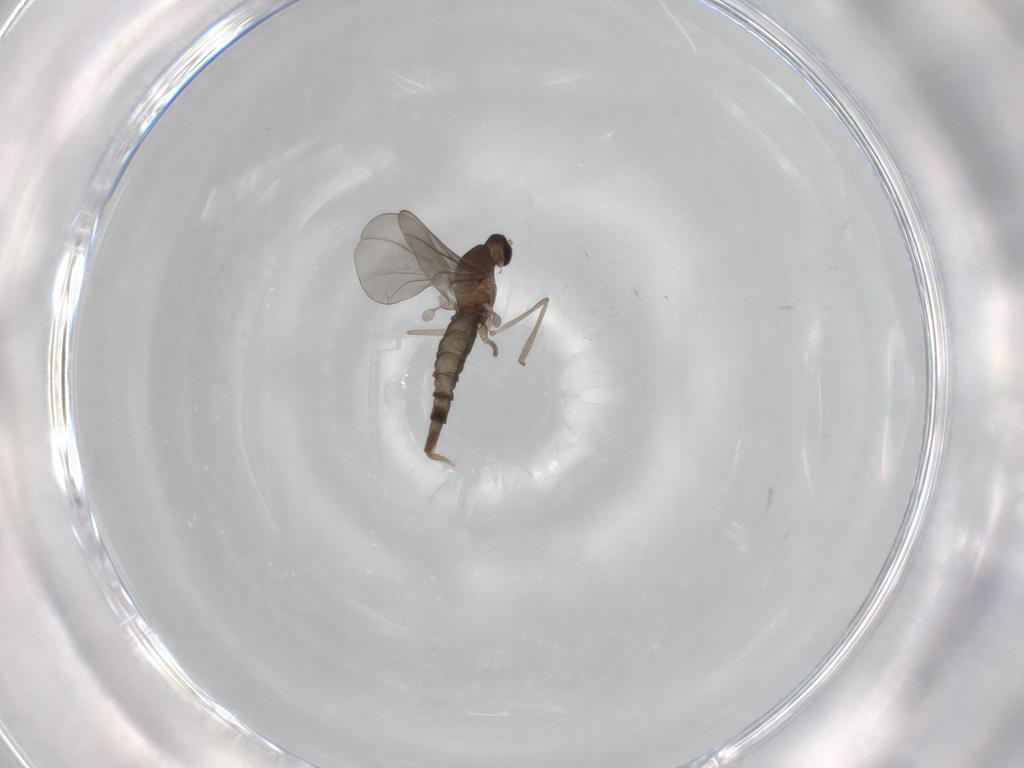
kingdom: Animalia
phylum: Arthropoda
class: Insecta
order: Diptera
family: Cecidomyiidae
